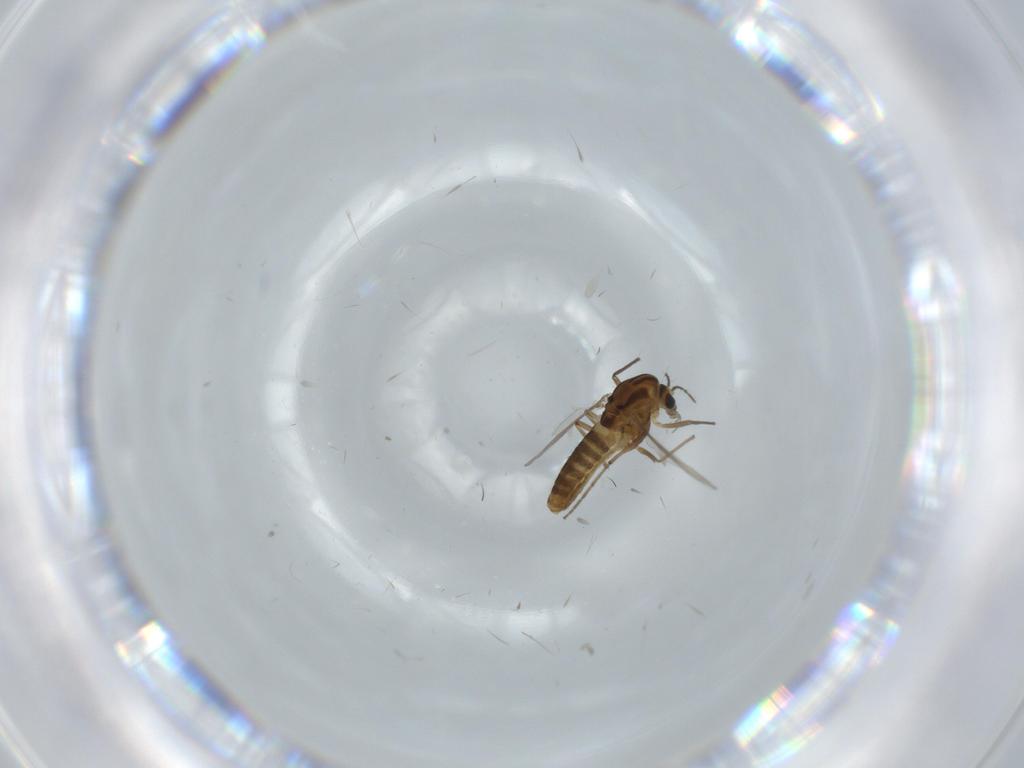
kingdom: Animalia
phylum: Arthropoda
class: Insecta
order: Diptera
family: Chironomidae
